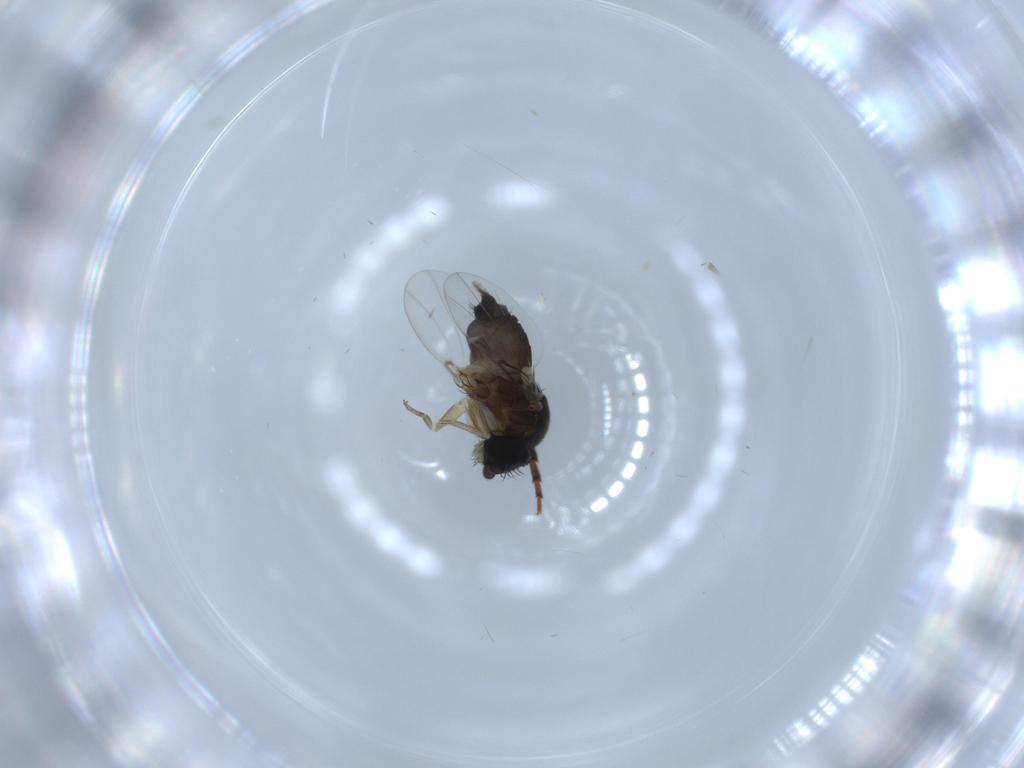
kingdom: Animalia
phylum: Arthropoda
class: Insecta
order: Diptera
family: Phoridae
